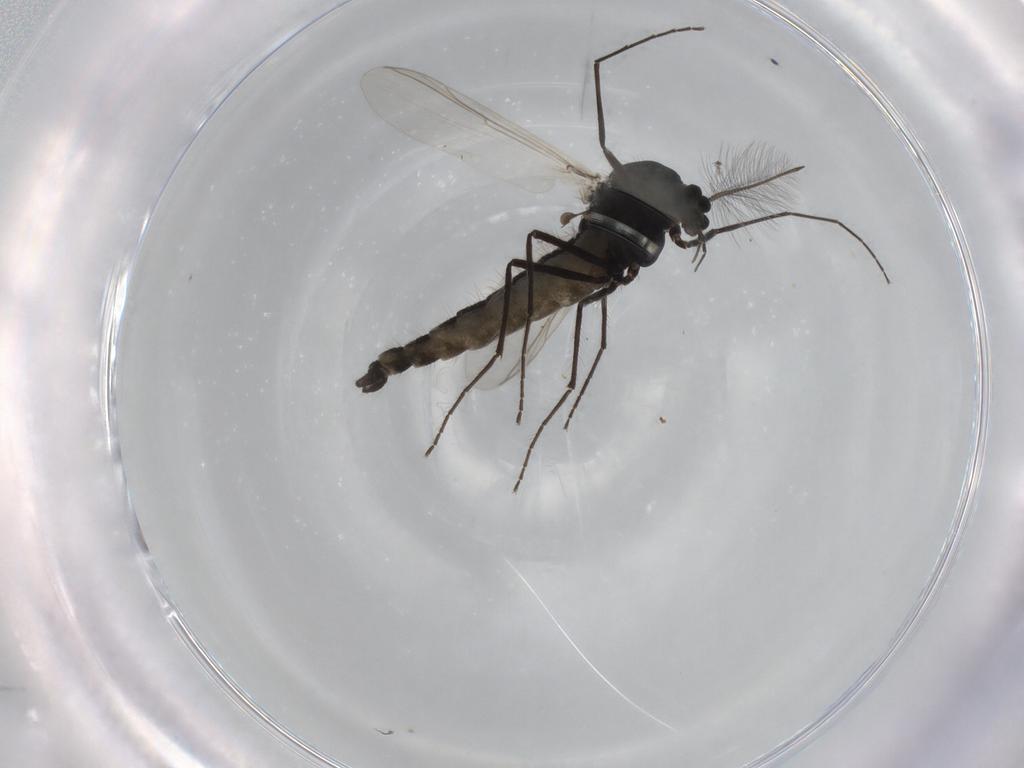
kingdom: Animalia
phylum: Arthropoda
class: Insecta
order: Diptera
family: Chironomidae
